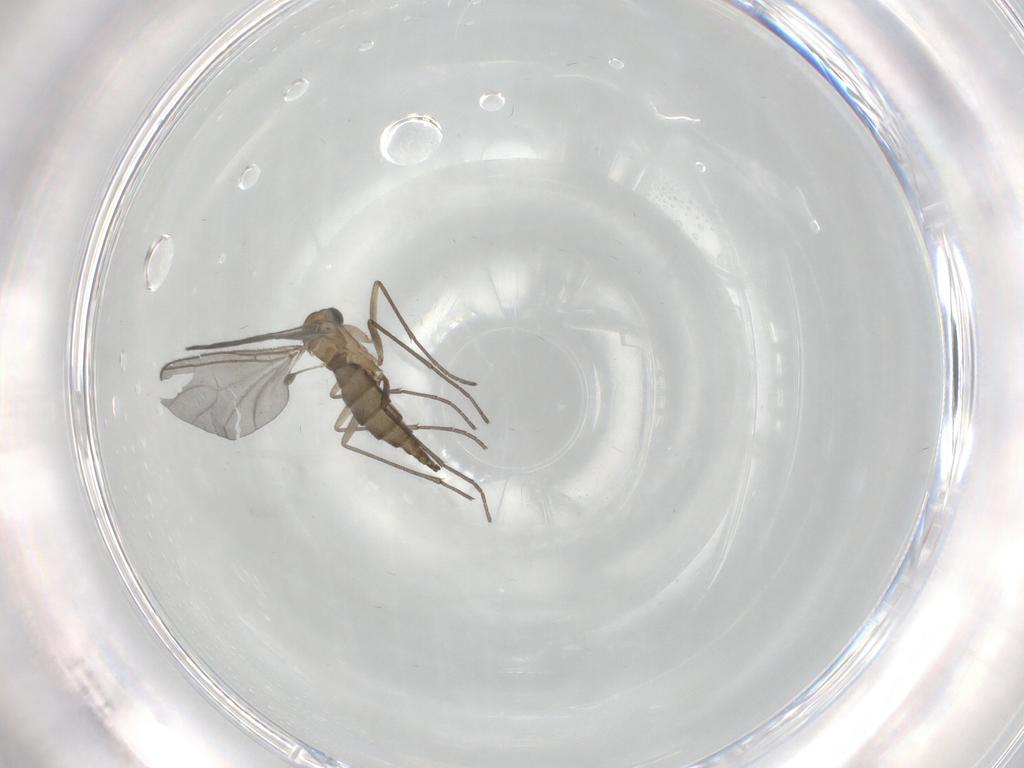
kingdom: Animalia
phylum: Arthropoda
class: Insecta
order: Diptera
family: Sciaridae
